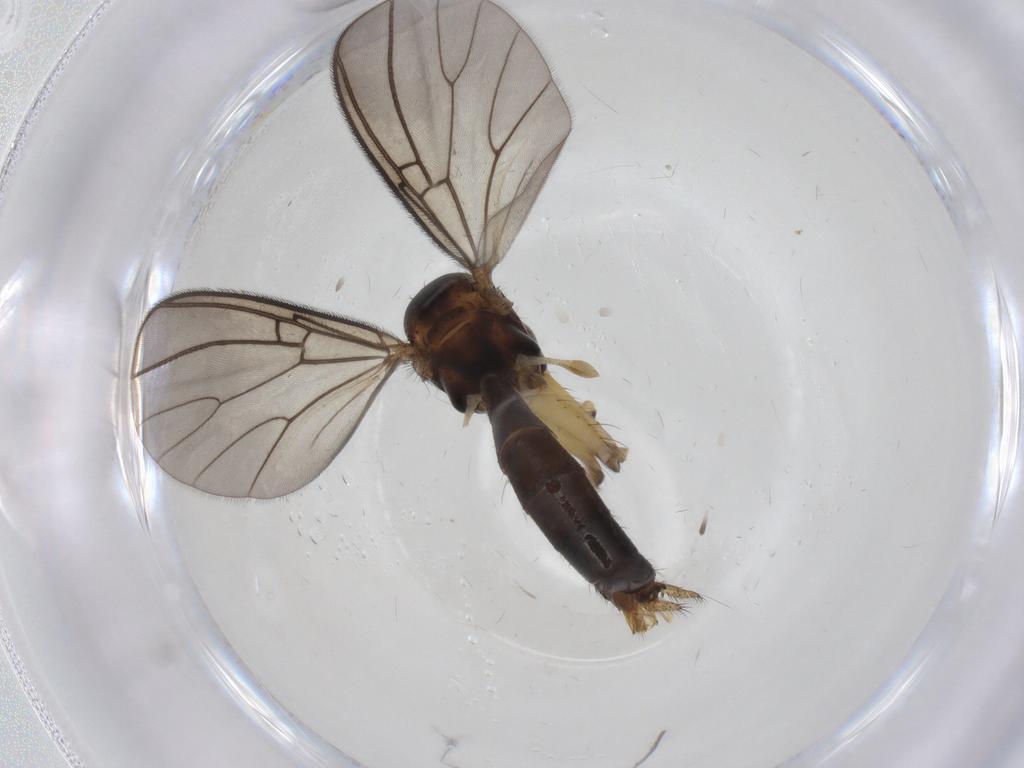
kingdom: Animalia
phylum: Arthropoda
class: Insecta
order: Diptera
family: Sciaridae
